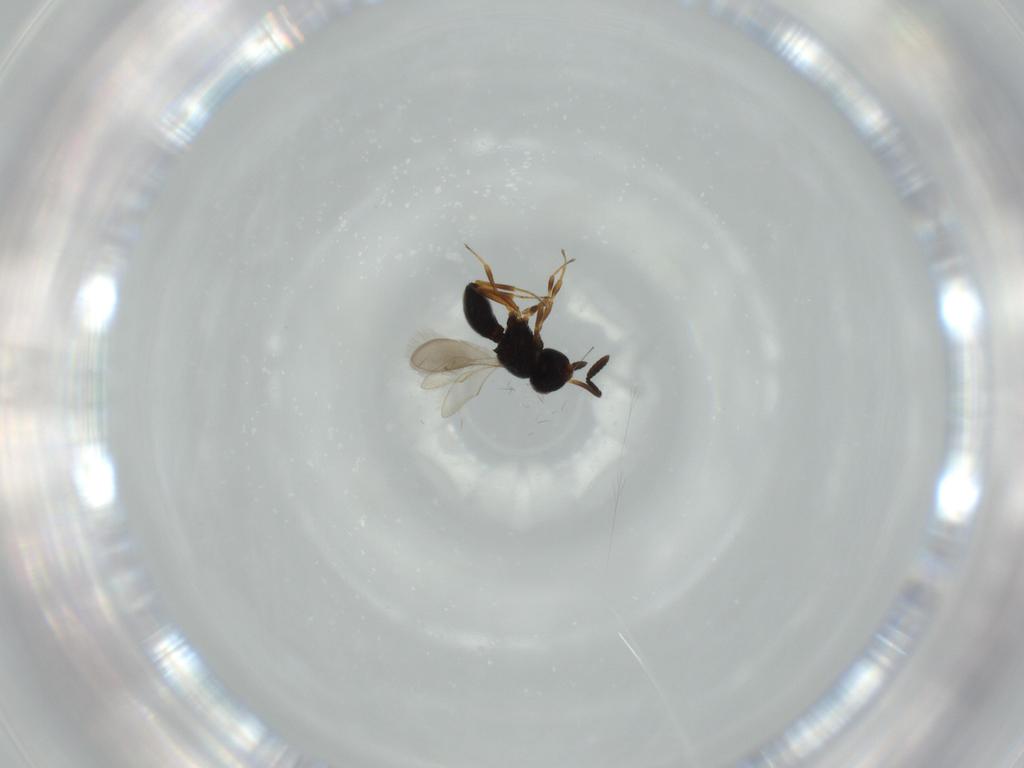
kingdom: Animalia
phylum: Arthropoda
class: Insecta
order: Hymenoptera
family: Scelionidae
